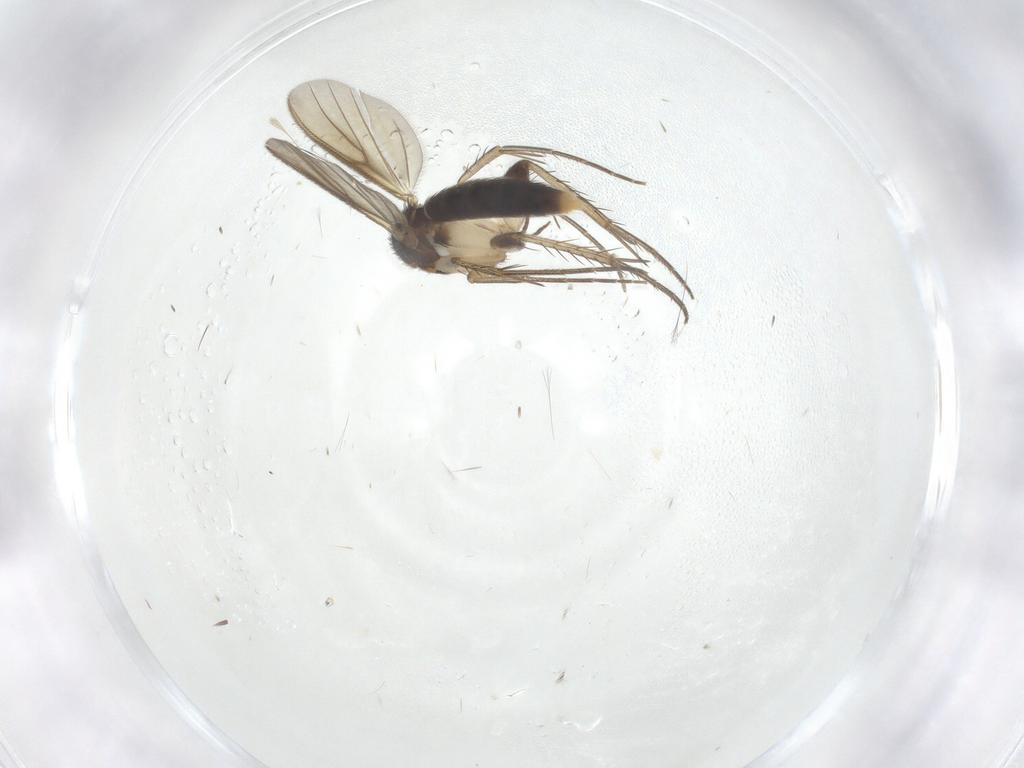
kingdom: Animalia
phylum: Arthropoda
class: Insecta
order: Diptera
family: Mycetophilidae
